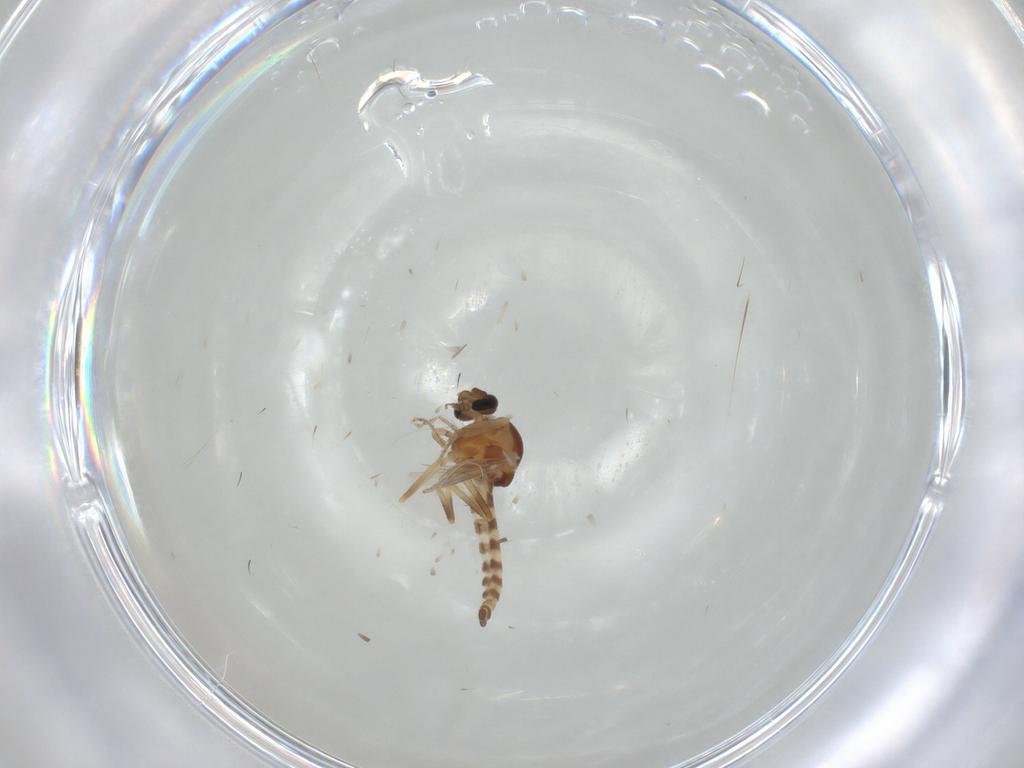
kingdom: Animalia
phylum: Arthropoda
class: Insecta
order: Diptera
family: Ceratopogonidae
